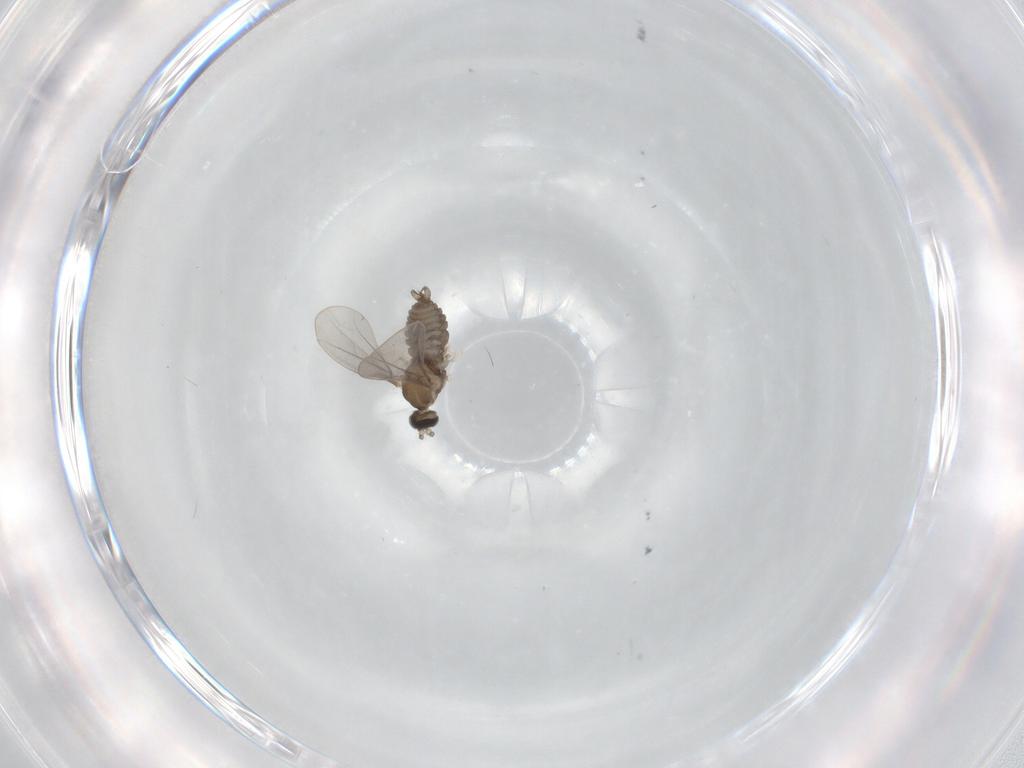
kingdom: Animalia
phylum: Arthropoda
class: Insecta
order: Diptera
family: Cecidomyiidae
